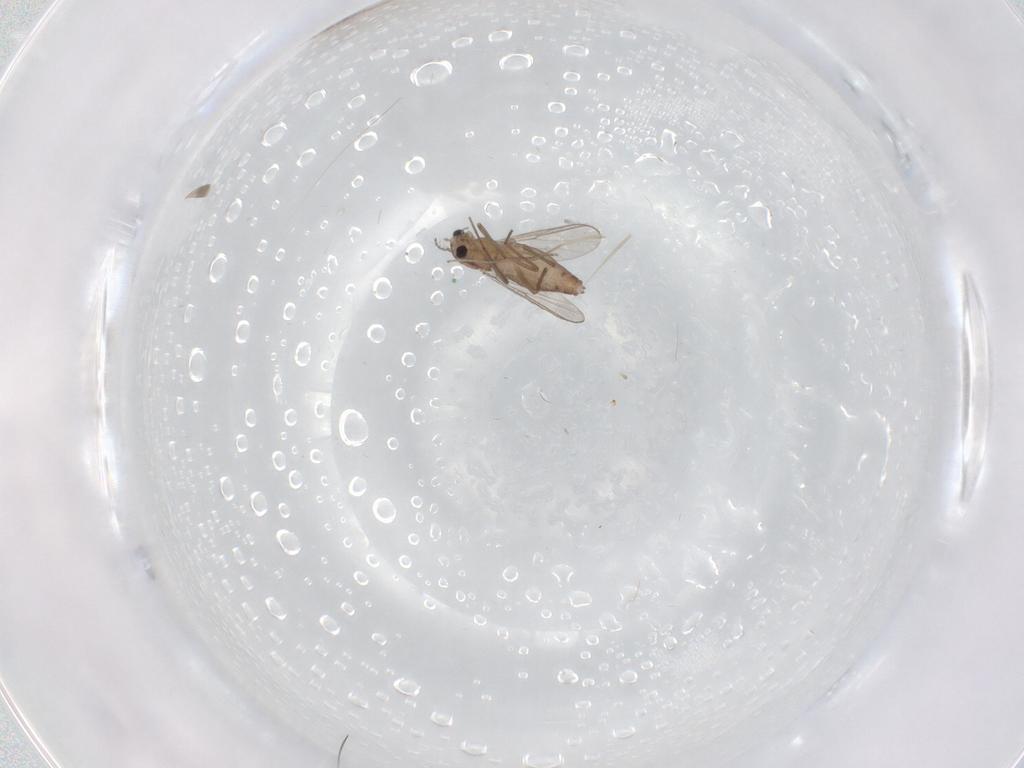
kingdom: Animalia
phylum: Arthropoda
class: Insecta
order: Diptera
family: Chironomidae
